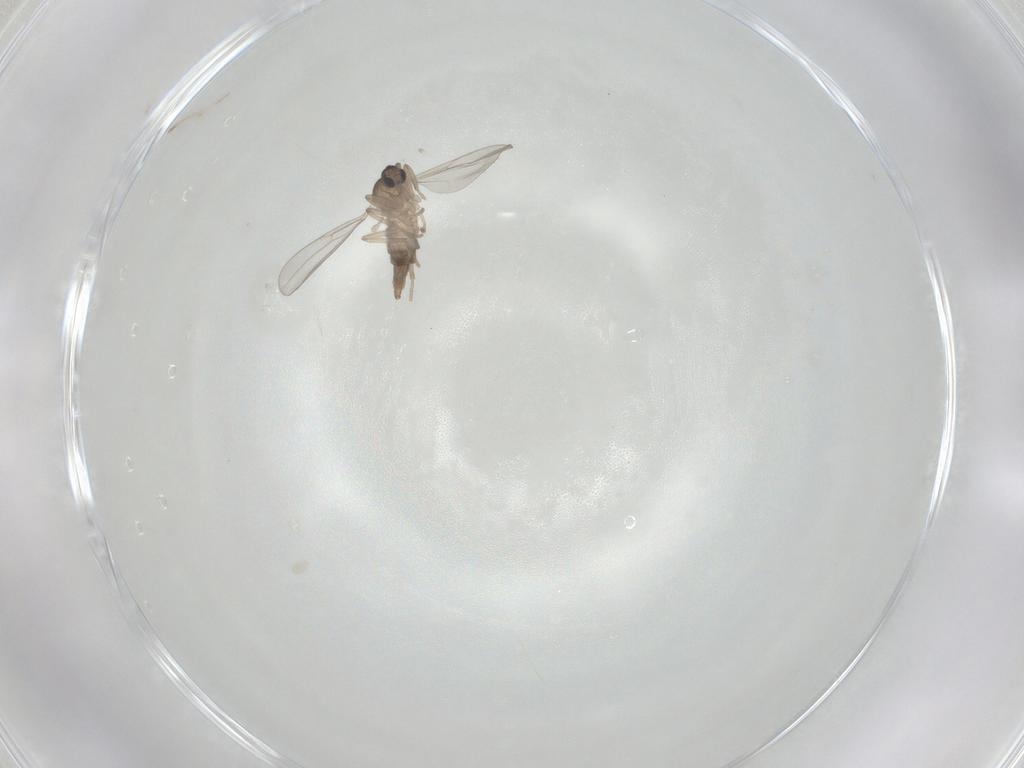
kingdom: Animalia
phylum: Arthropoda
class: Insecta
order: Diptera
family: Cecidomyiidae
